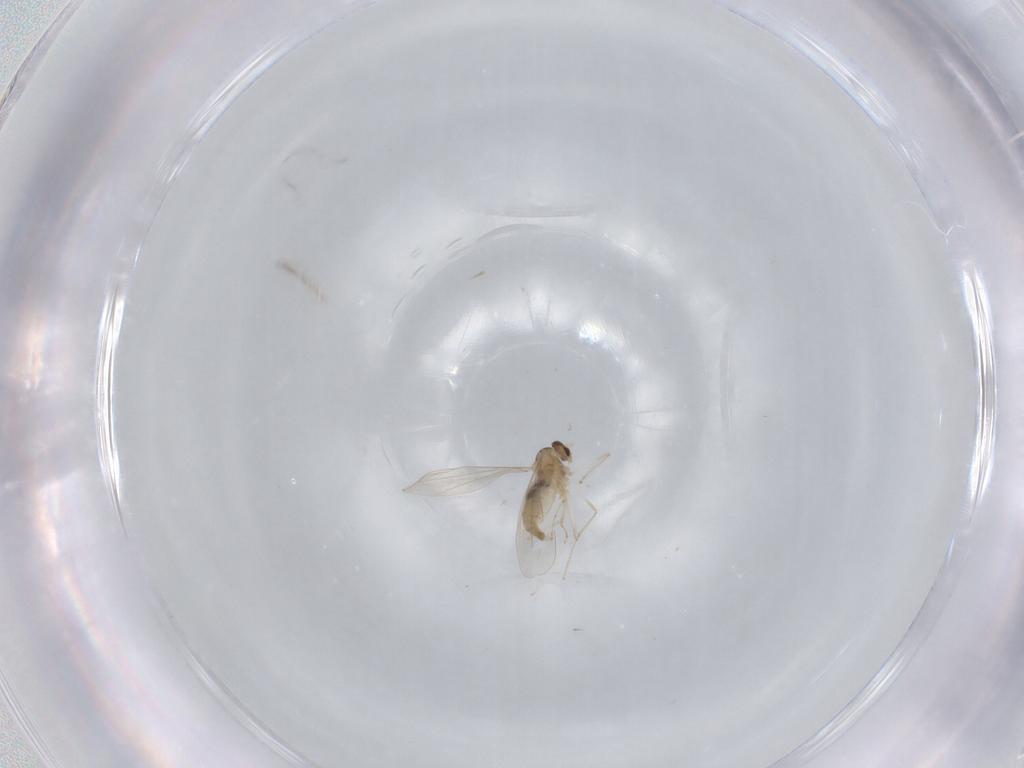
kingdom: Animalia
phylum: Arthropoda
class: Insecta
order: Diptera
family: Cecidomyiidae
